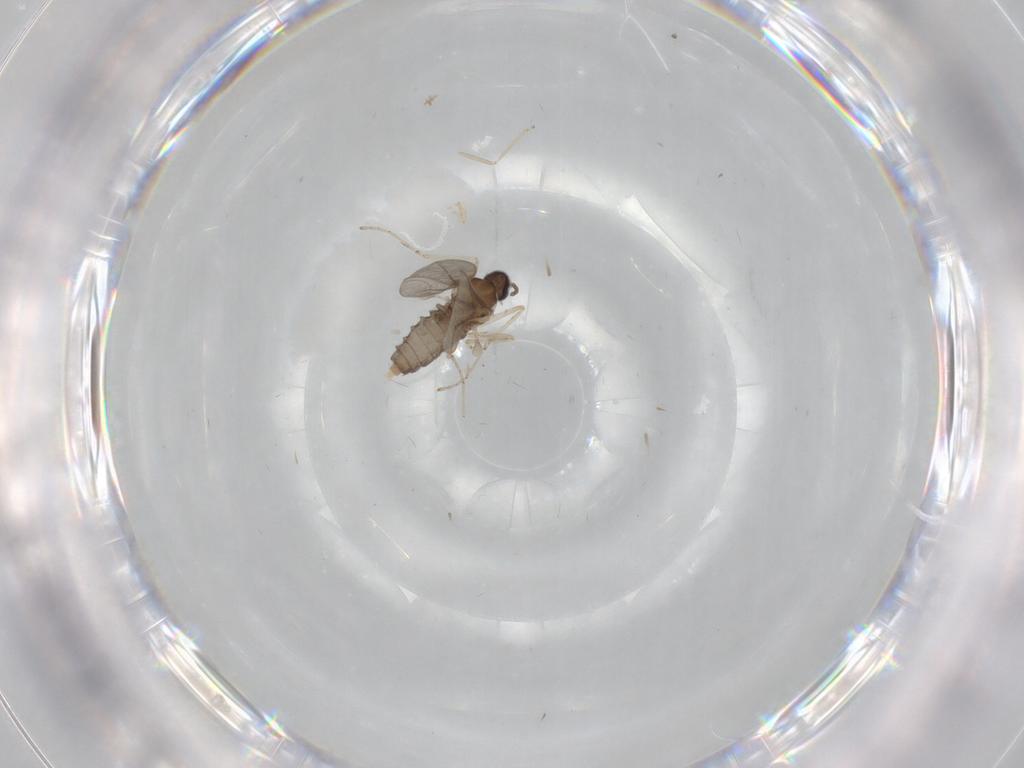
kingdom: Animalia
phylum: Arthropoda
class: Insecta
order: Diptera
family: Cecidomyiidae
